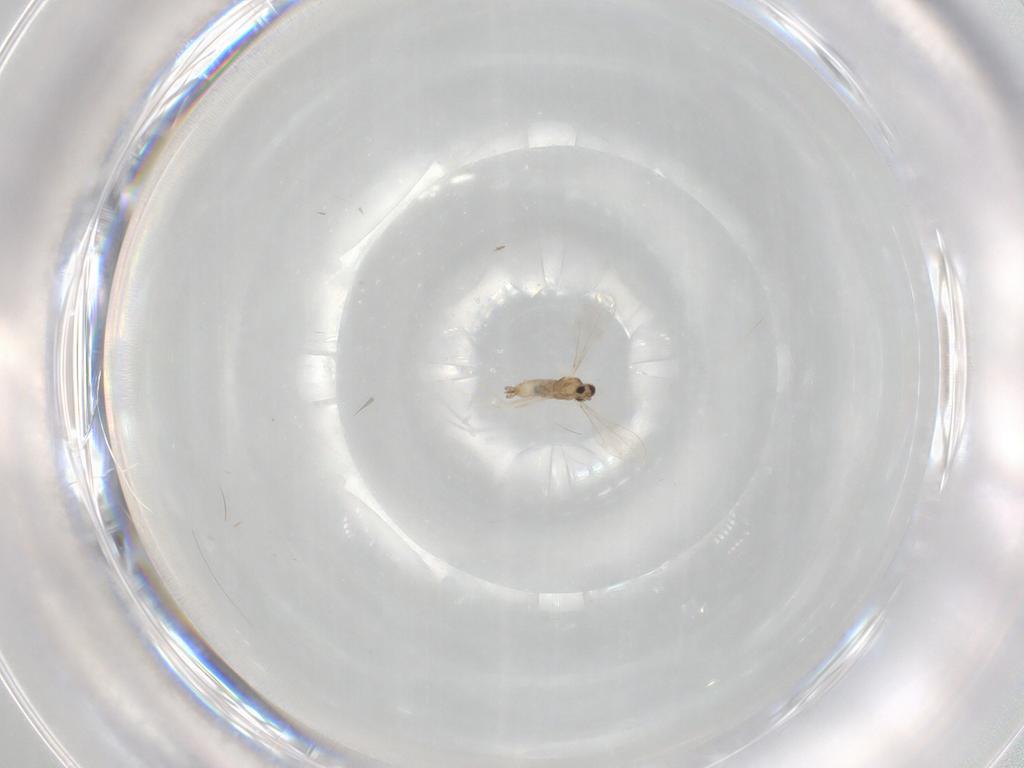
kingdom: Animalia
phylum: Arthropoda
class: Insecta
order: Diptera
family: Cecidomyiidae
